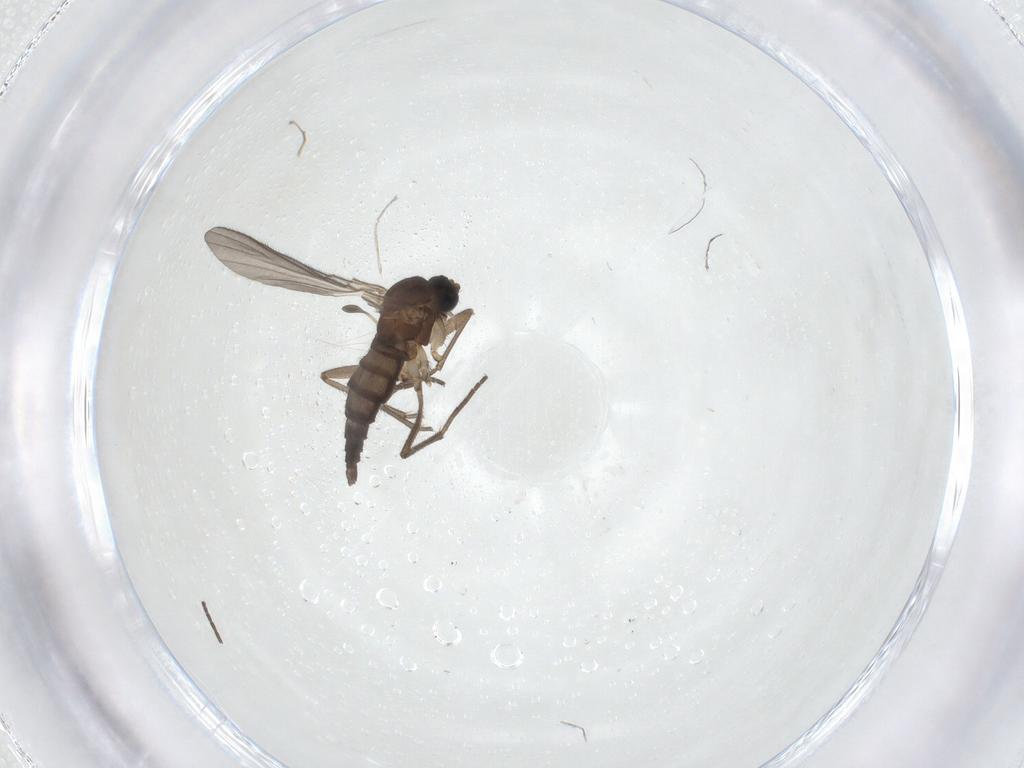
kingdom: Animalia
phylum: Arthropoda
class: Insecta
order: Diptera
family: Sciaridae
